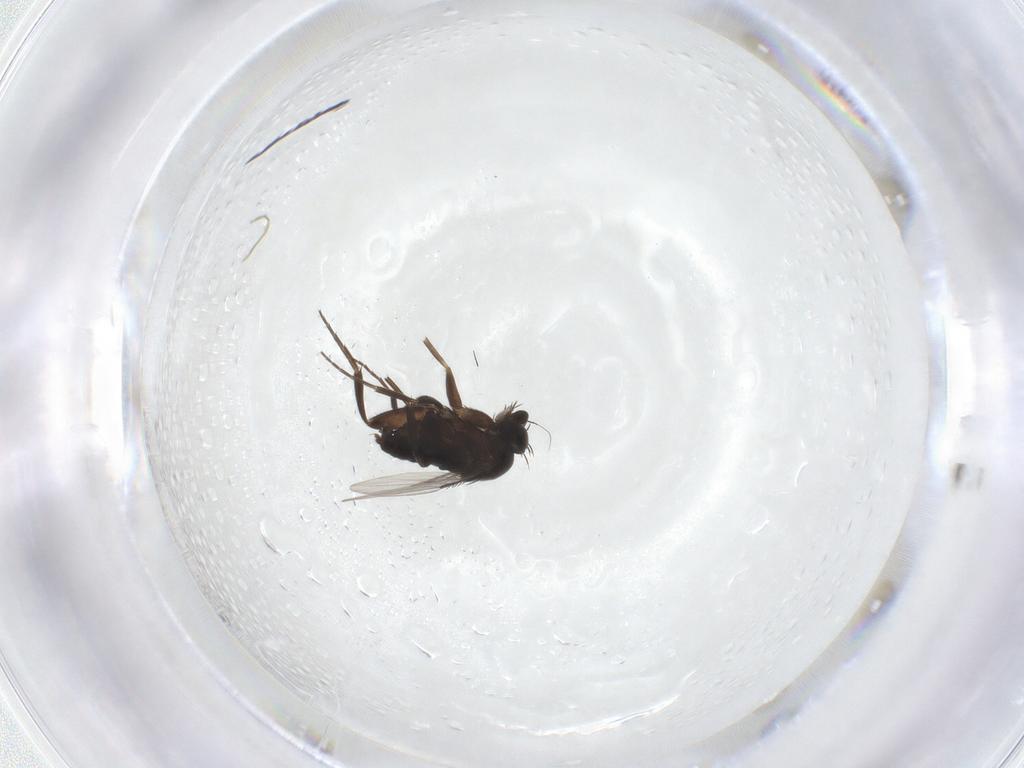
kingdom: Animalia
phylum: Arthropoda
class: Insecta
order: Diptera
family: Phoridae
